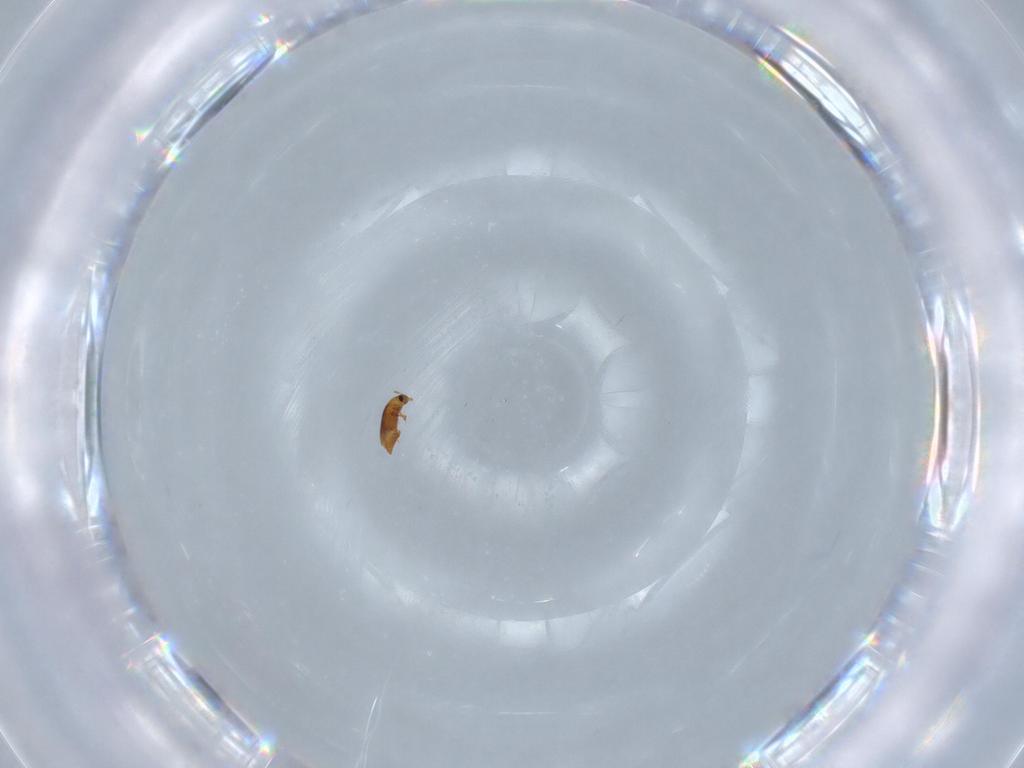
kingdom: Animalia
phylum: Arthropoda
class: Insecta
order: Coleoptera
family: Ptiliidae
